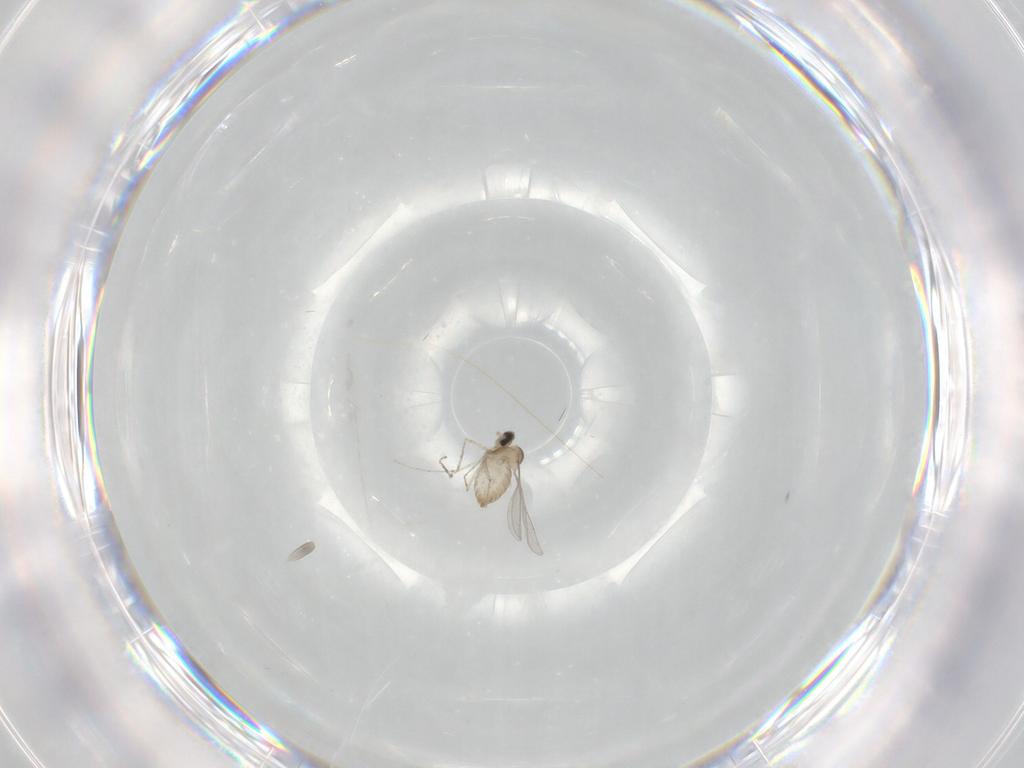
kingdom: Animalia
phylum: Arthropoda
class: Insecta
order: Diptera
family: Cecidomyiidae
